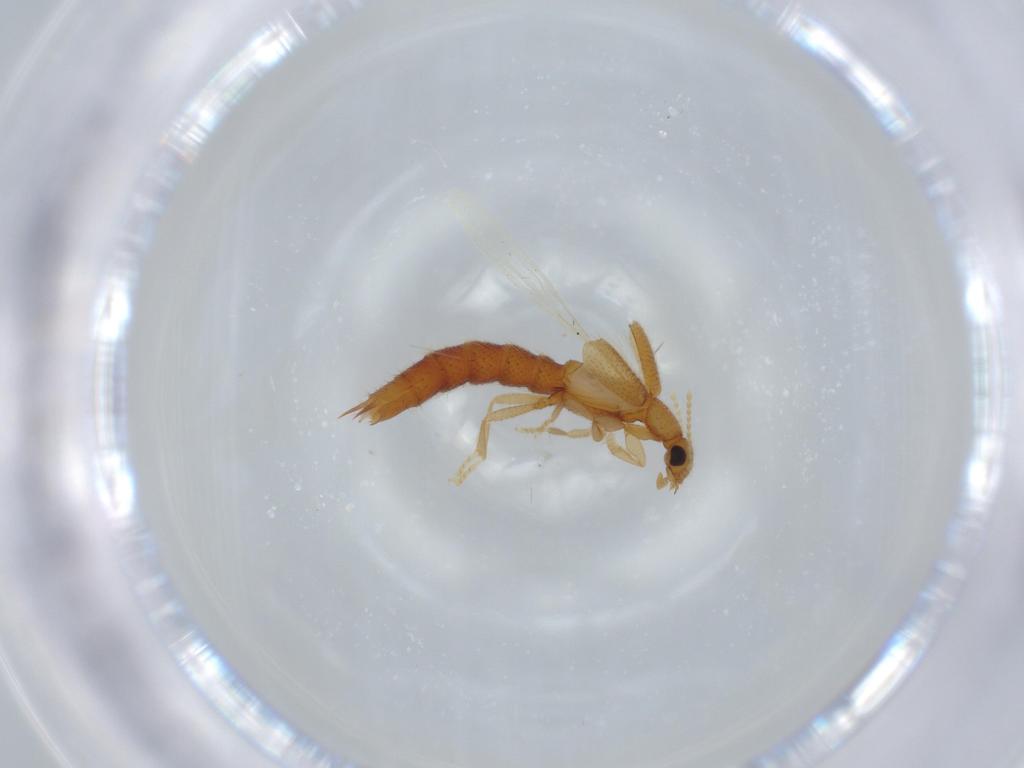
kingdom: Animalia
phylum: Arthropoda
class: Insecta
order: Coleoptera
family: Staphylinidae
